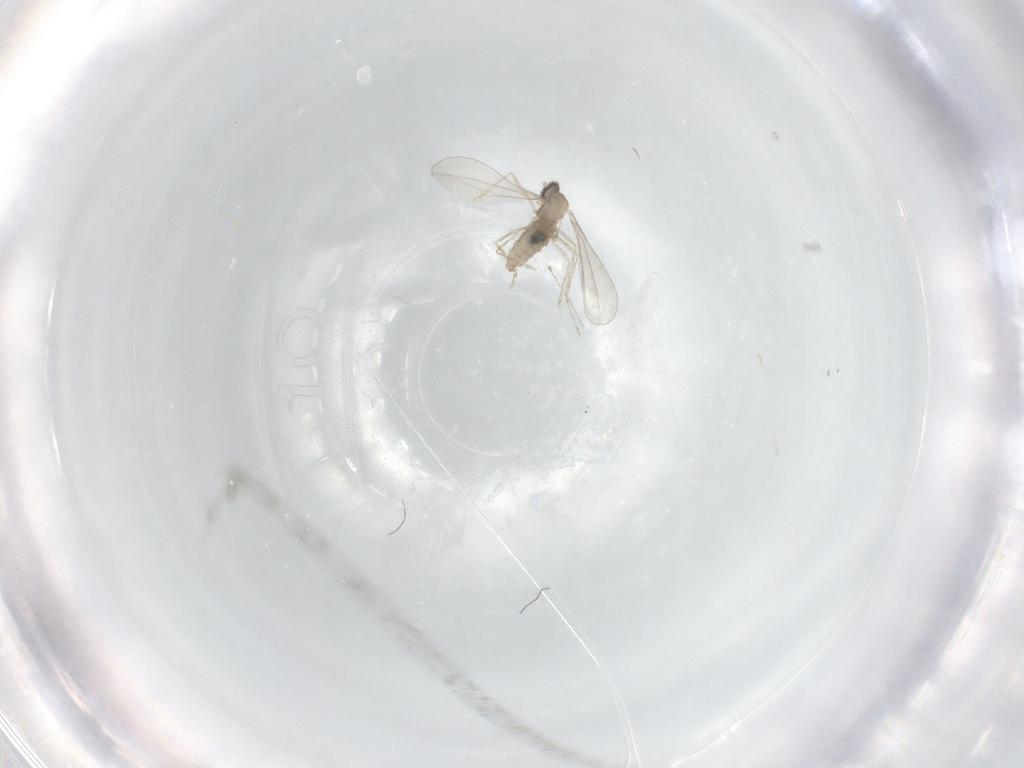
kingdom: Animalia
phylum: Arthropoda
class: Insecta
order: Diptera
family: Cecidomyiidae
